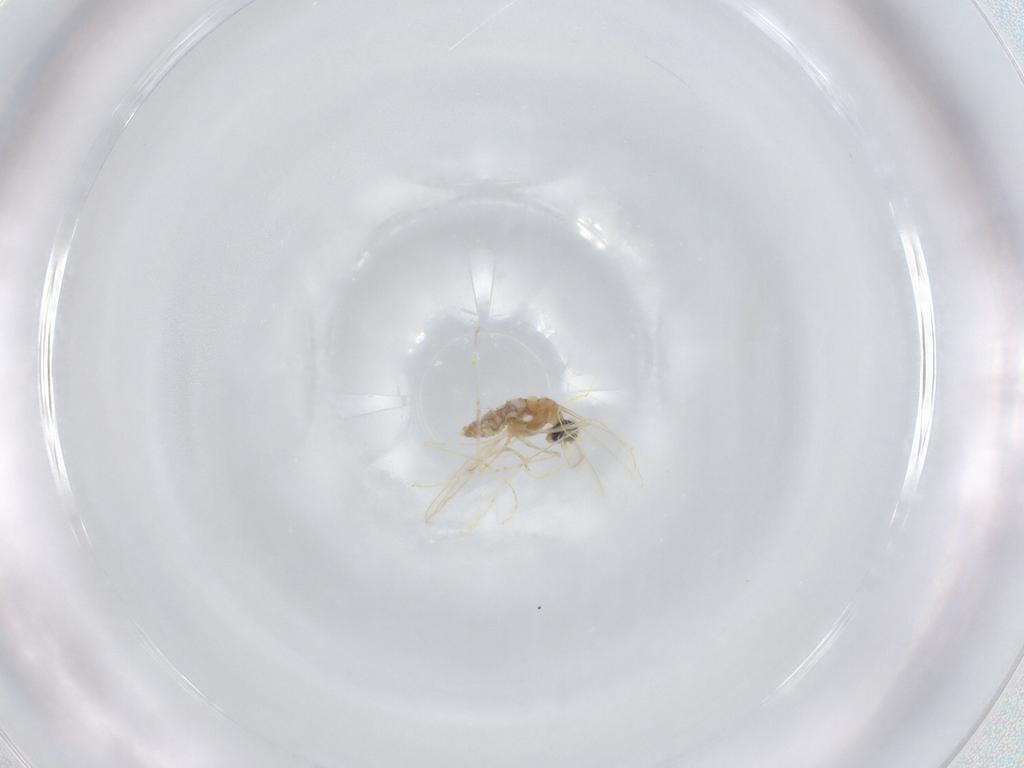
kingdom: Animalia
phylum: Arthropoda
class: Insecta
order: Diptera
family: Cecidomyiidae
